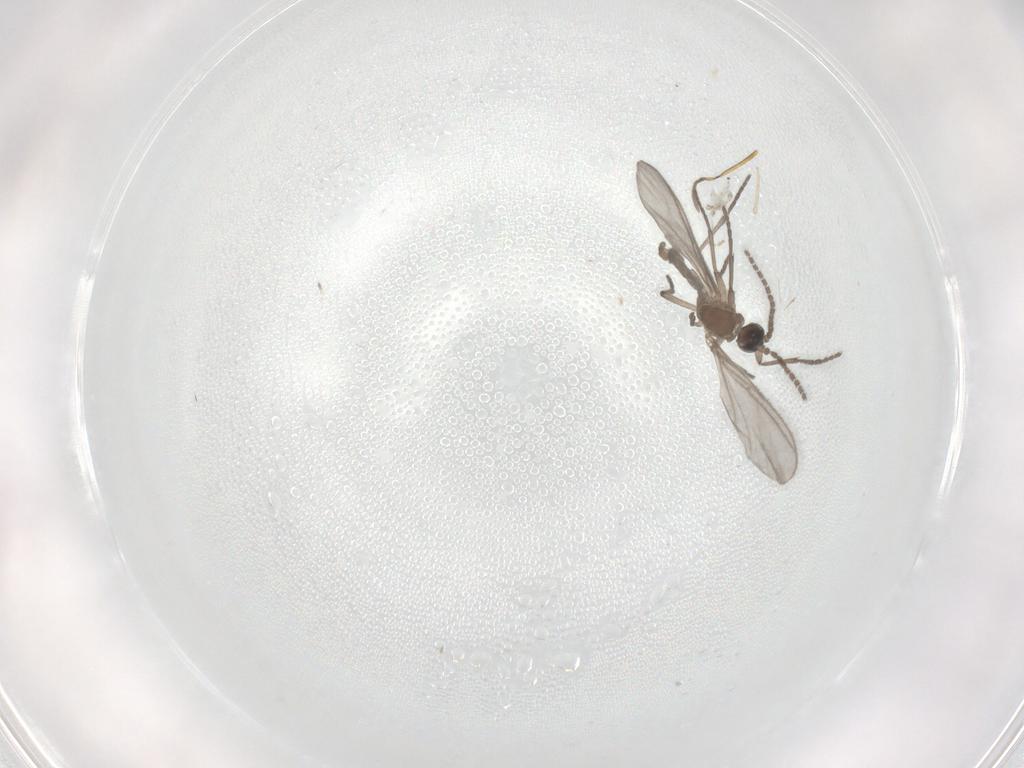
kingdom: Animalia
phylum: Arthropoda
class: Insecta
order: Diptera
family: Sciaridae
